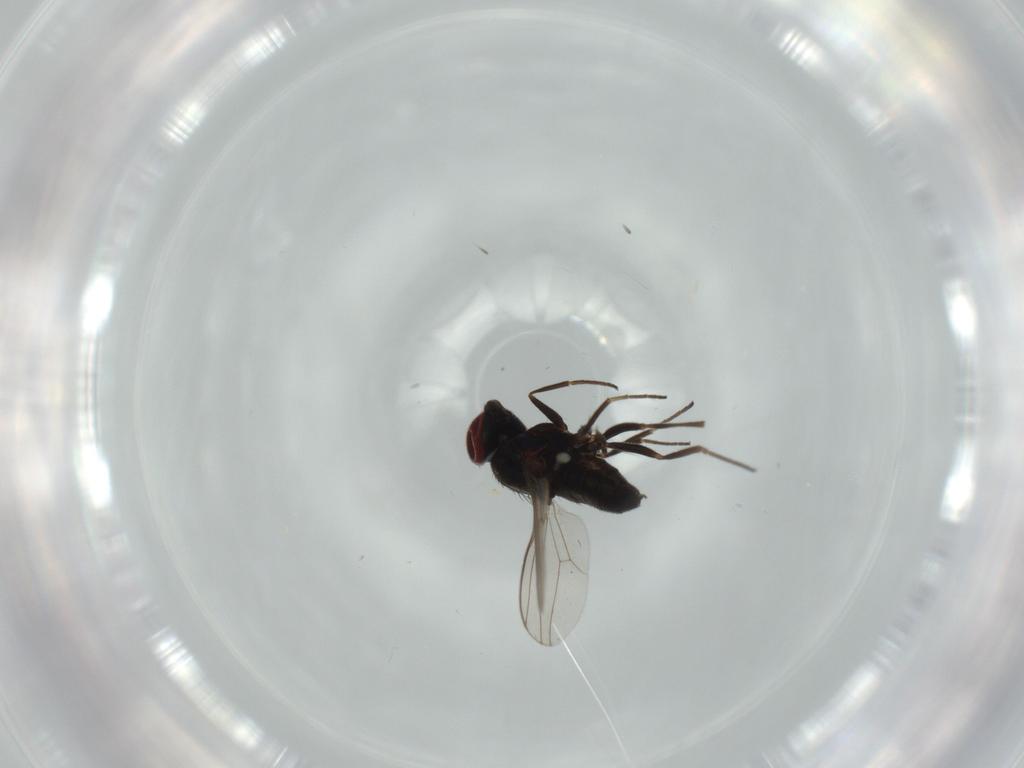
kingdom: Animalia
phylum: Arthropoda
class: Insecta
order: Diptera
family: Dolichopodidae
